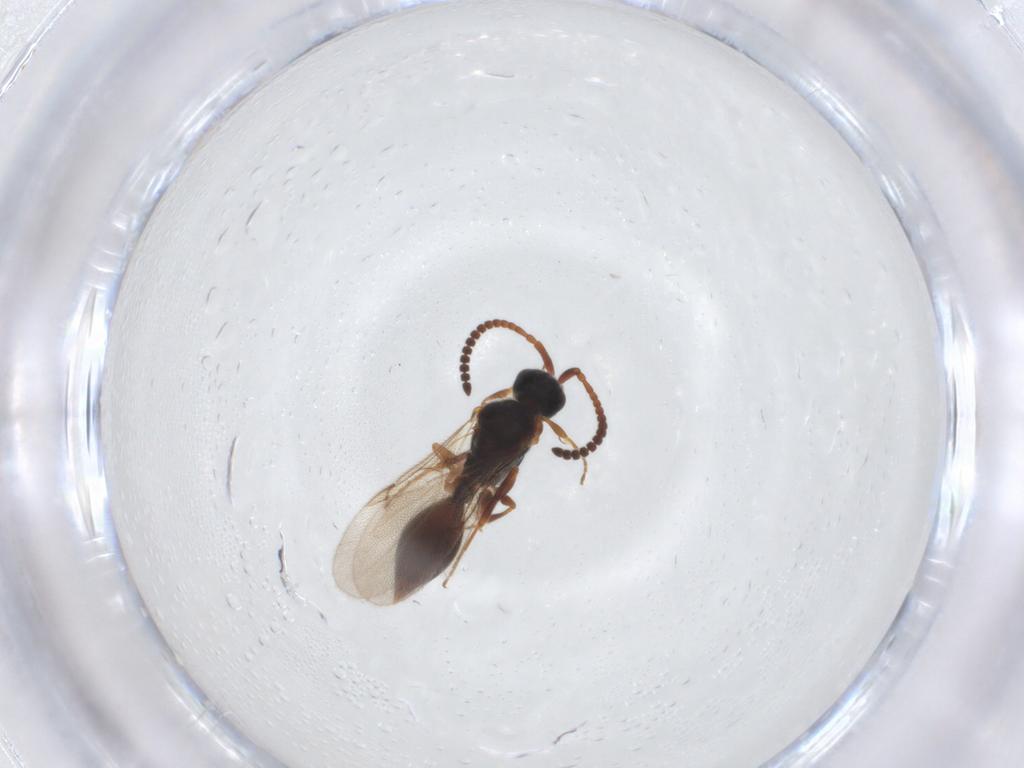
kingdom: Animalia
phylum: Arthropoda
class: Insecta
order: Hymenoptera
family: Diapriidae
